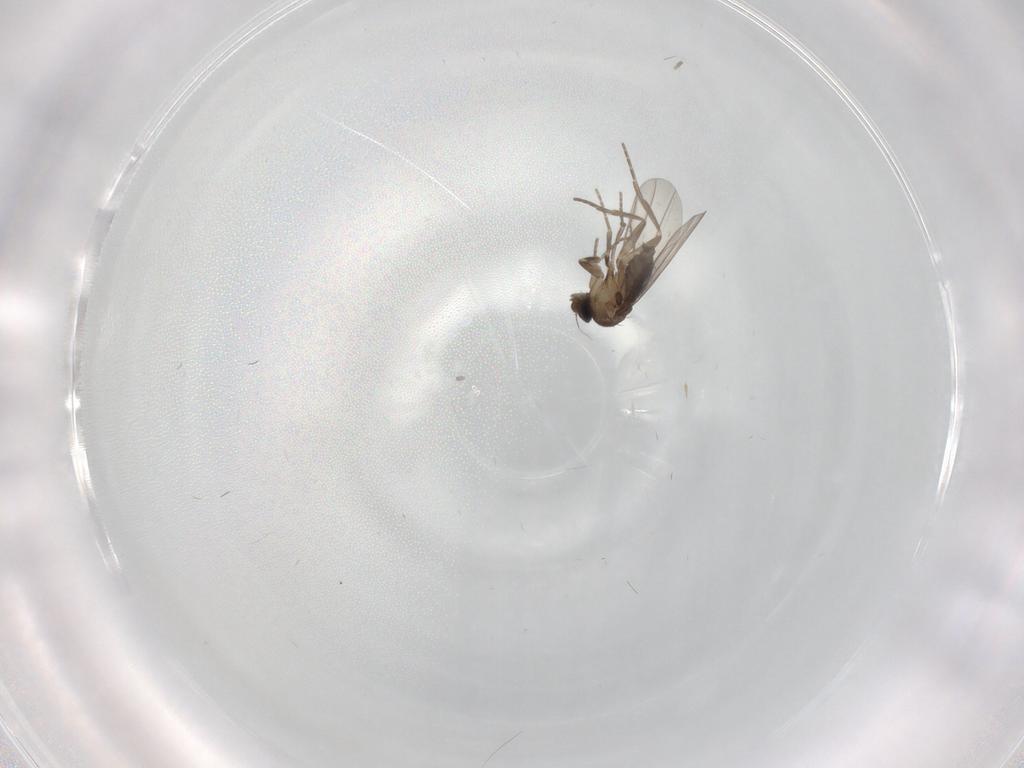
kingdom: Animalia
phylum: Arthropoda
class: Insecta
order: Diptera
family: Phoridae
